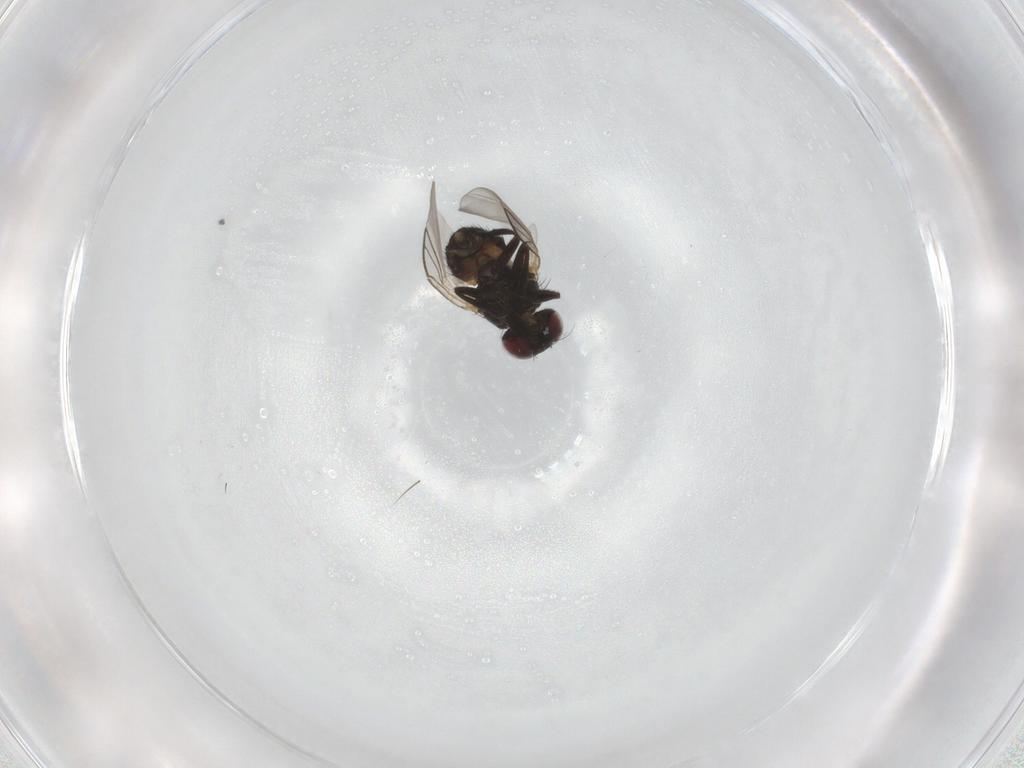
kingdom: Animalia
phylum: Arthropoda
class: Insecta
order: Diptera
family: Agromyzidae
